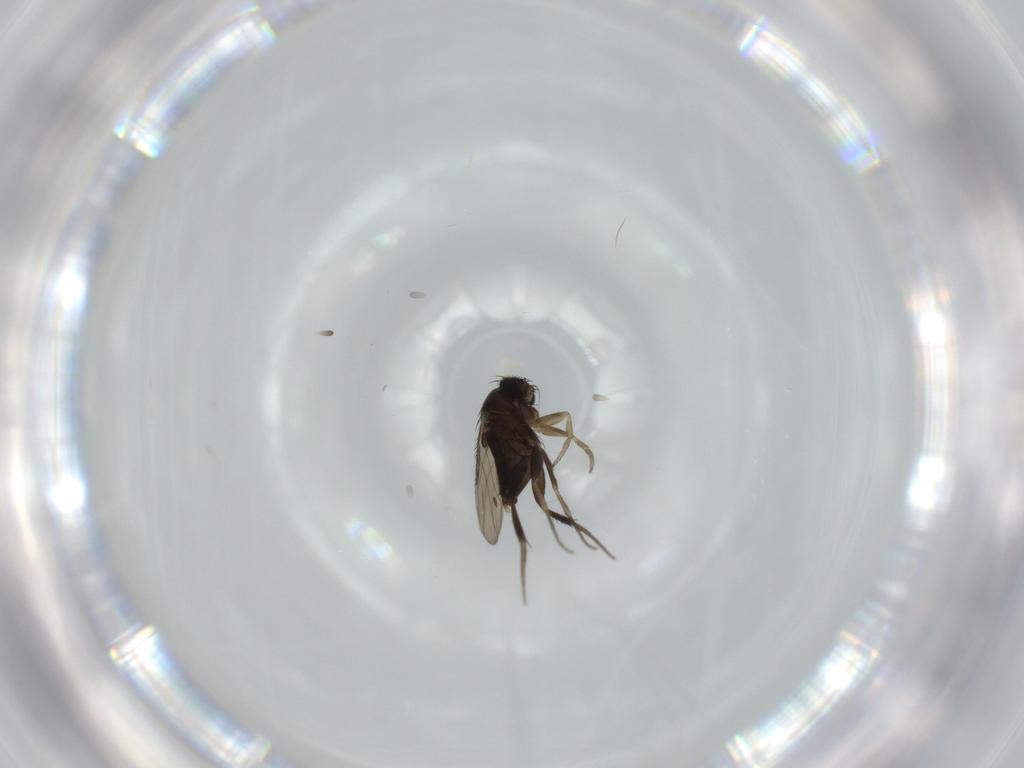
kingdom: Animalia
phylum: Arthropoda
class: Insecta
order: Diptera
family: Phoridae
